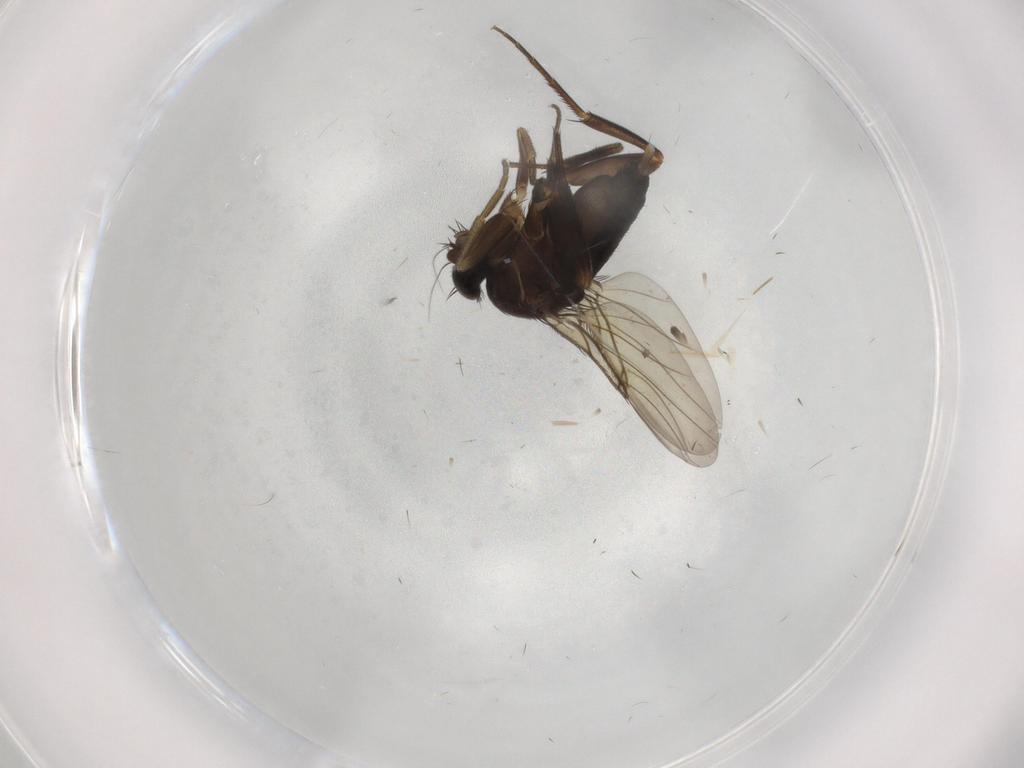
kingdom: Animalia
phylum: Arthropoda
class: Insecta
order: Diptera
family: Phoridae
